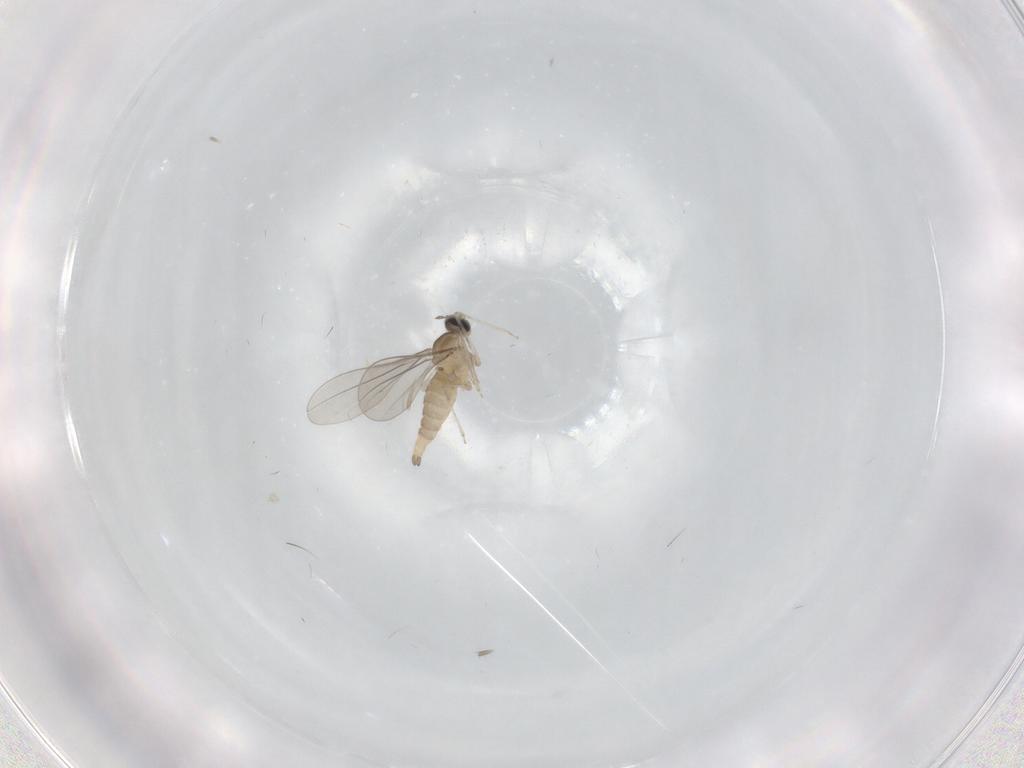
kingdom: Animalia
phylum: Arthropoda
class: Insecta
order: Diptera
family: Cecidomyiidae
